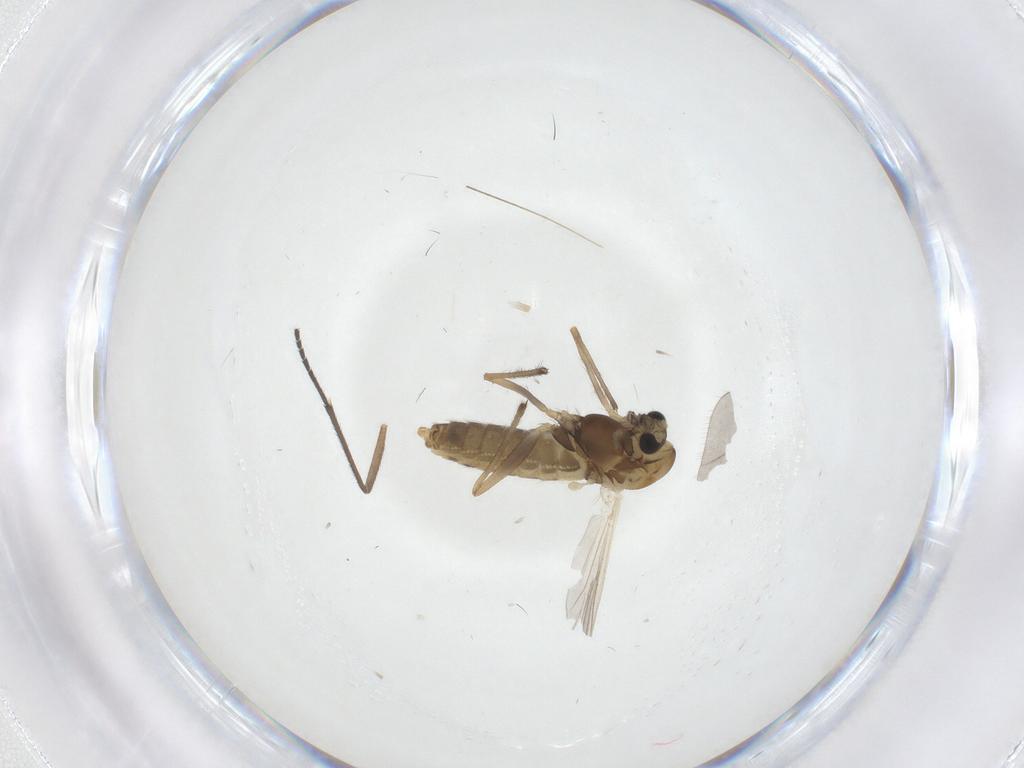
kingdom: Animalia
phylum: Arthropoda
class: Insecta
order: Diptera
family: Chironomidae
